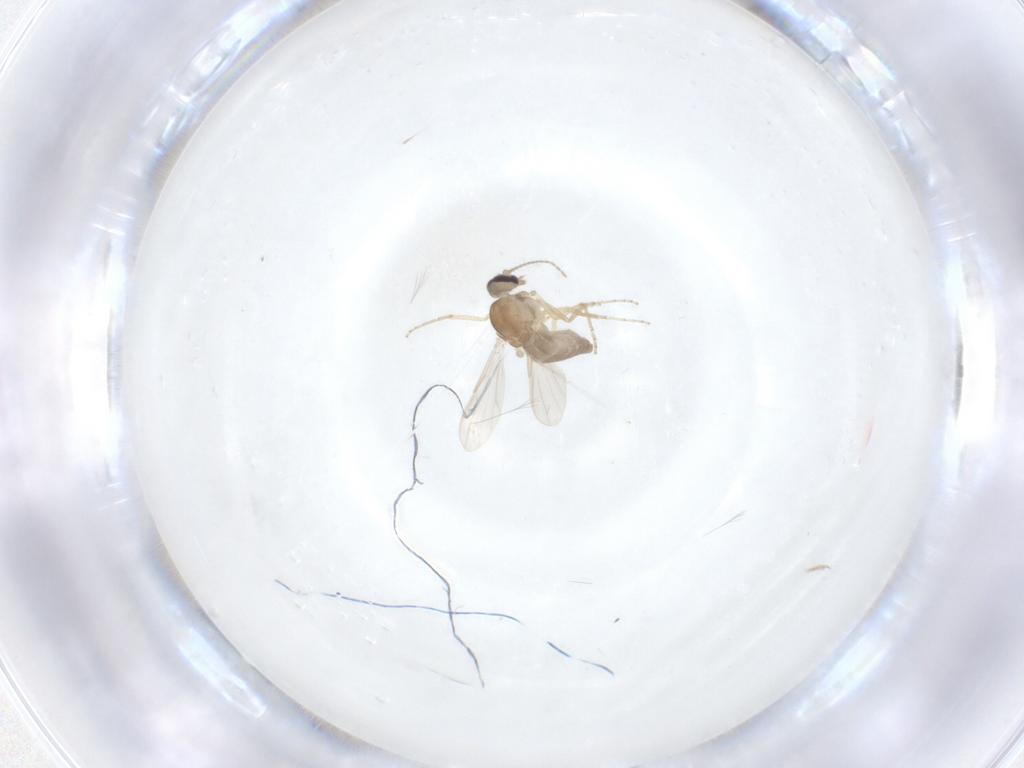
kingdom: Animalia
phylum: Arthropoda
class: Insecta
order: Diptera
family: Ceratopogonidae
